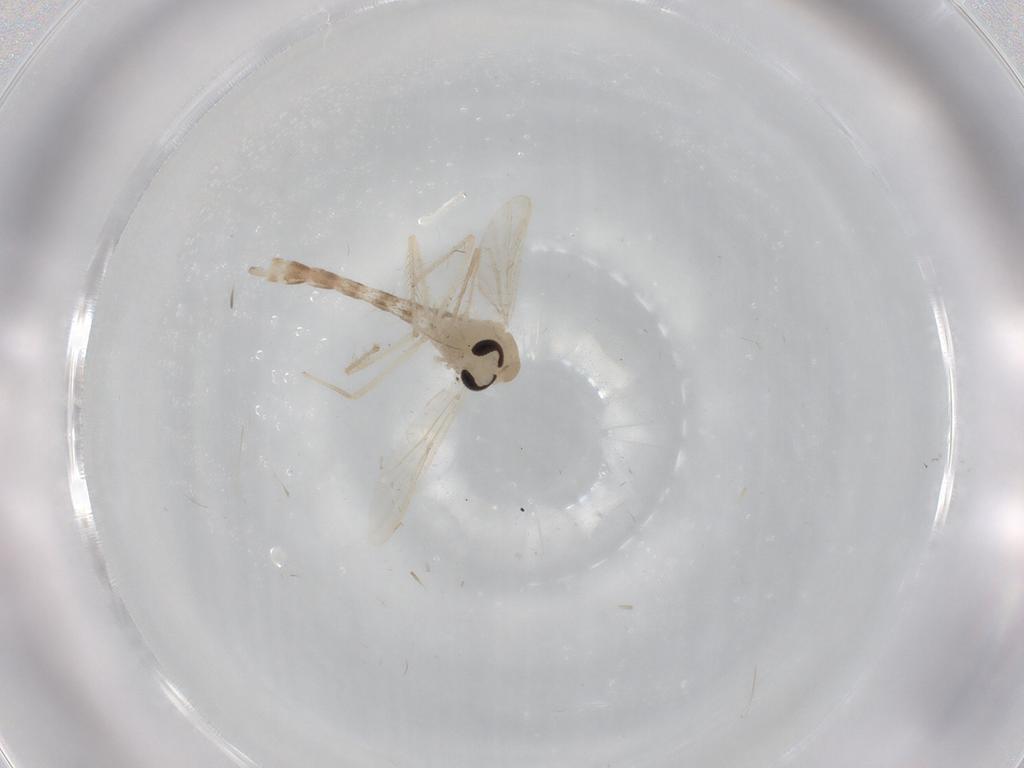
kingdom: Animalia
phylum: Arthropoda
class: Insecta
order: Diptera
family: Chironomidae
